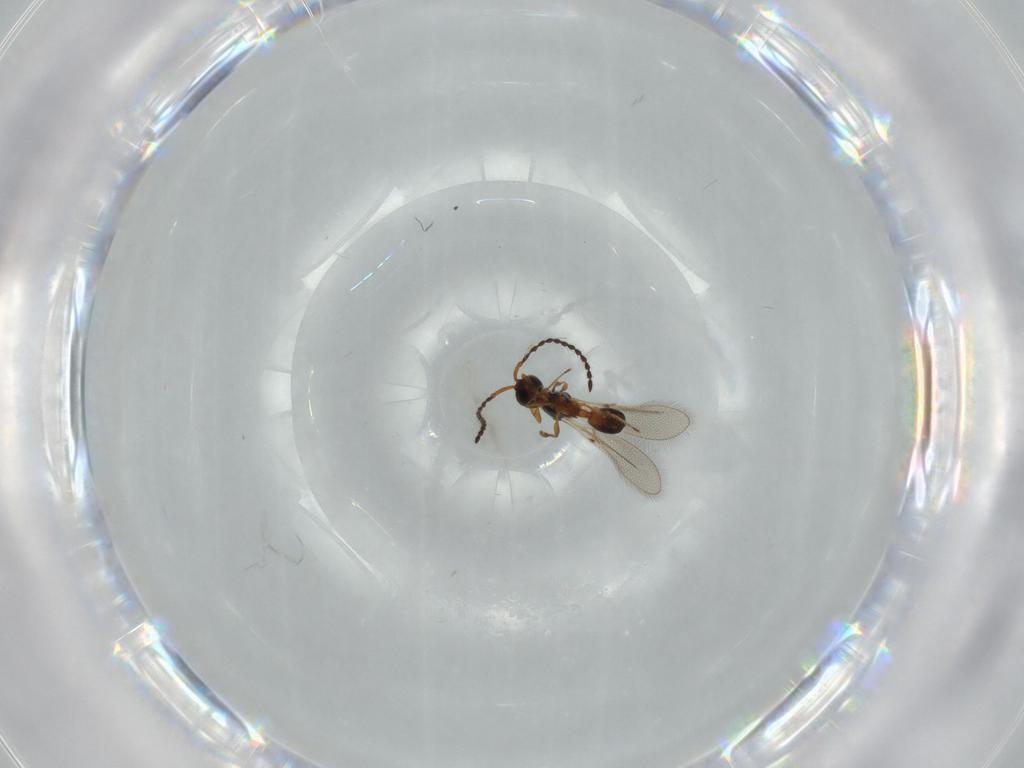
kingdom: Animalia
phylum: Arthropoda
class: Insecta
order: Hymenoptera
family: Diapriidae
